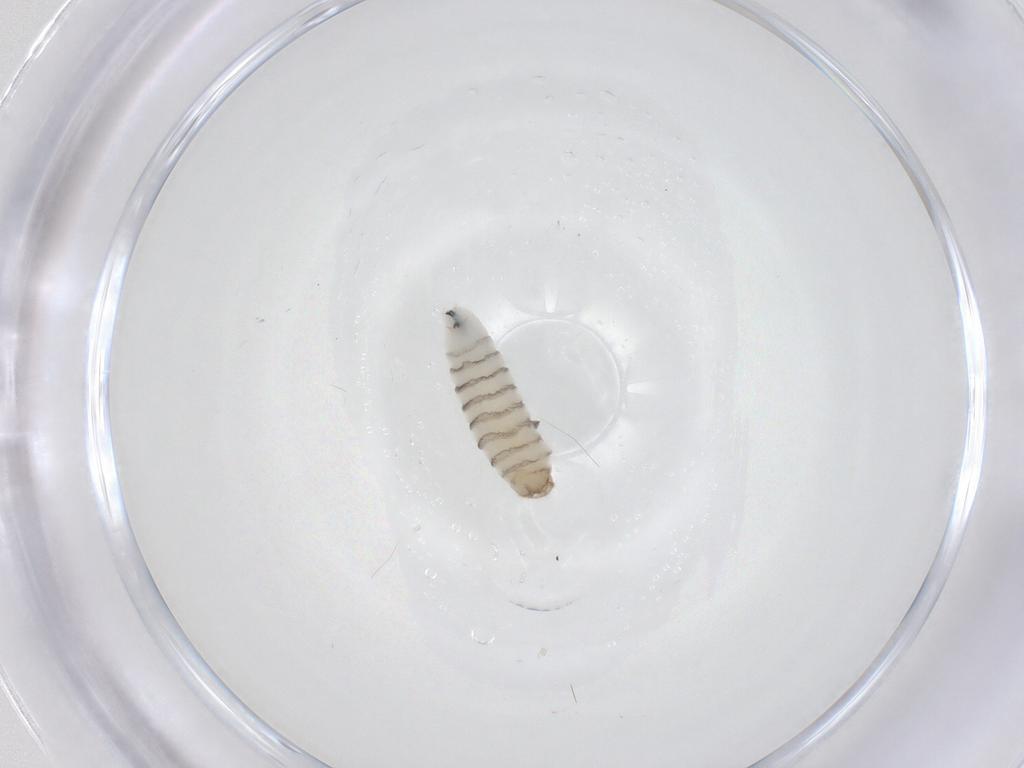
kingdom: Animalia
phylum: Arthropoda
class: Insecta
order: Diptera
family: Sarcophagidae
